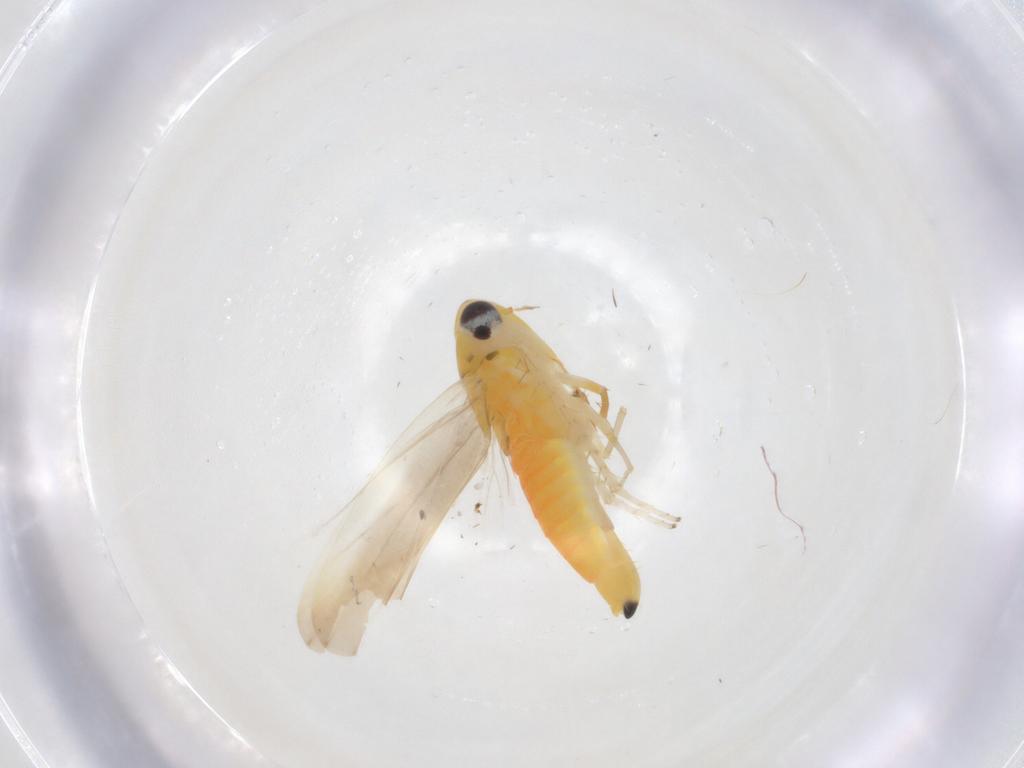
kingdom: Animalia
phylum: Arthropoda
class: Insecta
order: Hemiptera
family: Cicadellidae
